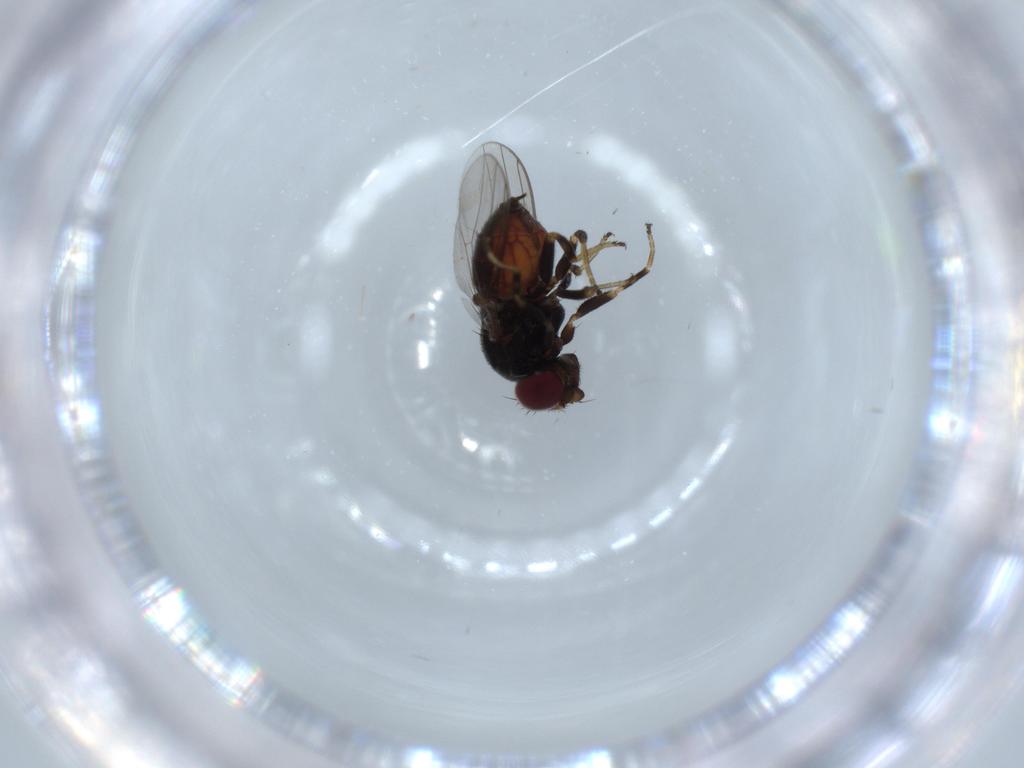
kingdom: Animalia
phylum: Arthropoda
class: Insecta
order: Diptera
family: Chloropidae
